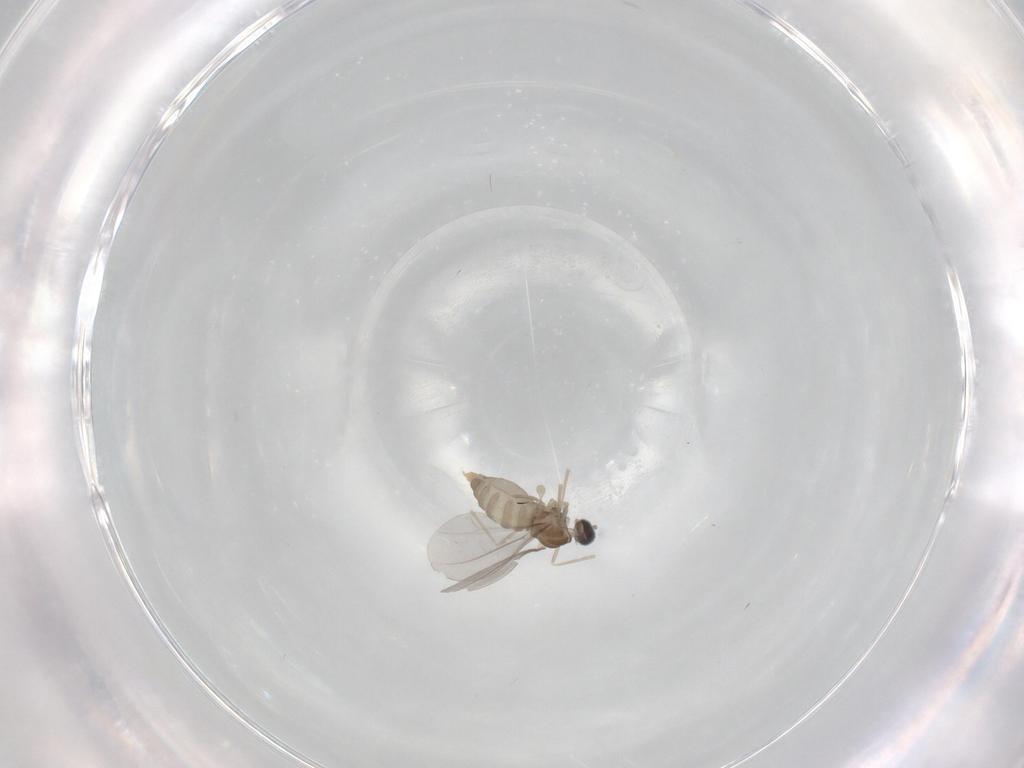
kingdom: Animalia
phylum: Arthropoda
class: Insecta
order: Diptera
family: Cecidomyiidae
